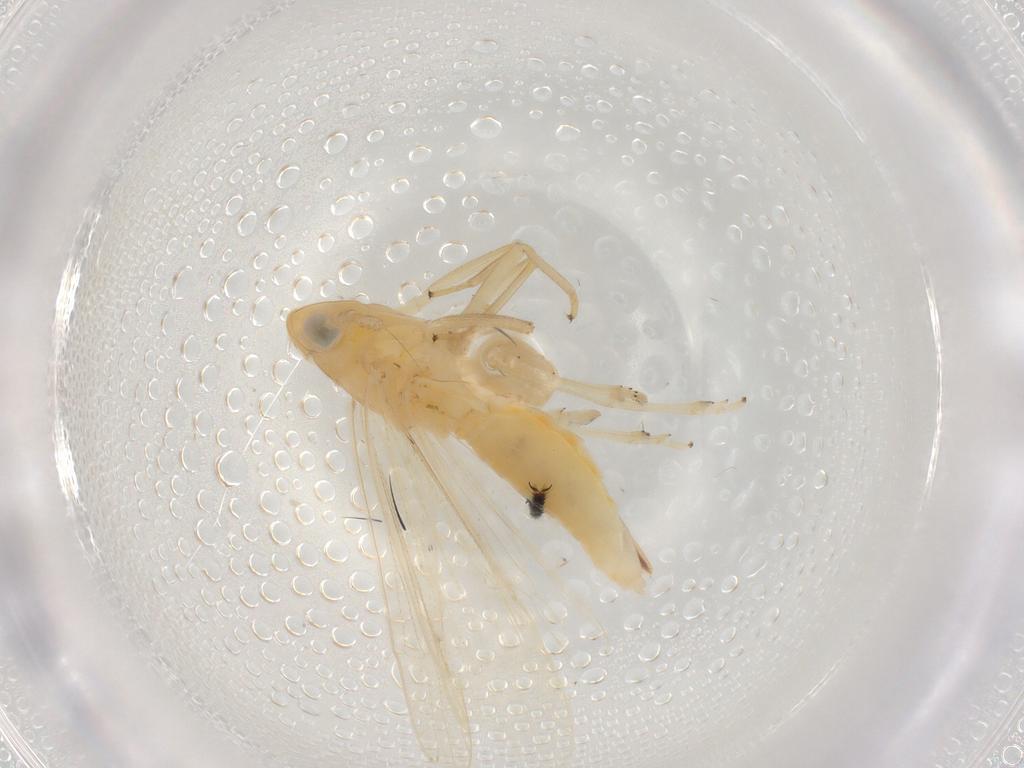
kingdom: Animalia
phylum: Arthropoda
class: Insecta
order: Hemiptera
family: Delphacidae
